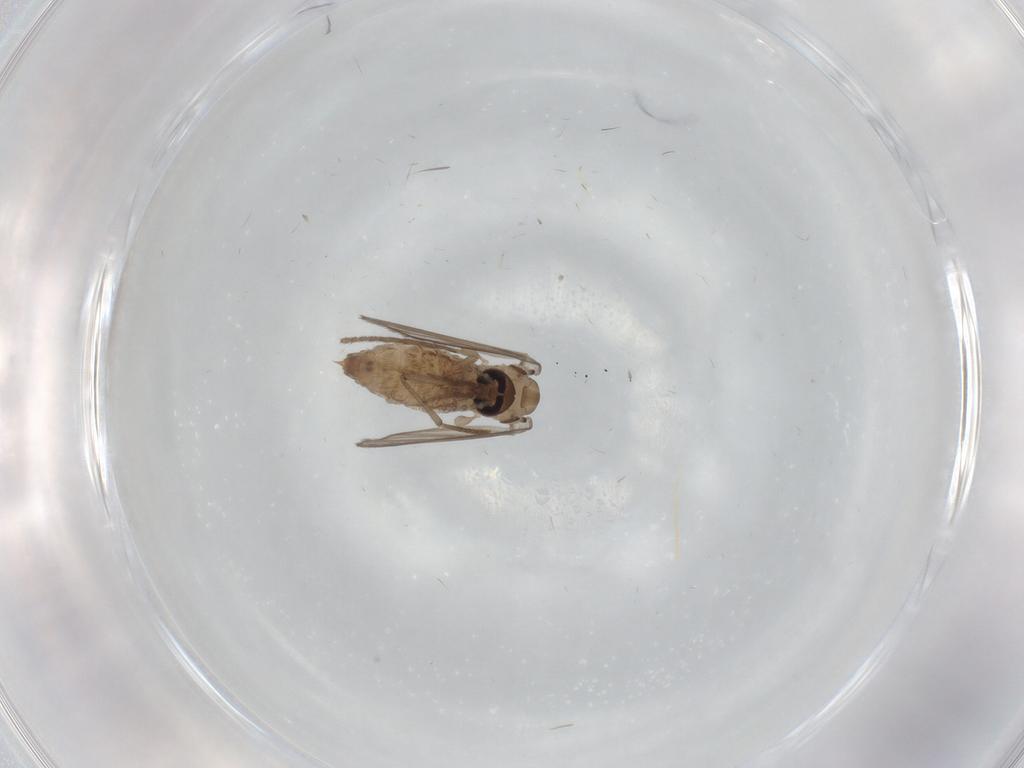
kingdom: Animalia
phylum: Arthropoda
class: Insecta
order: Diptera
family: Psychodidae
